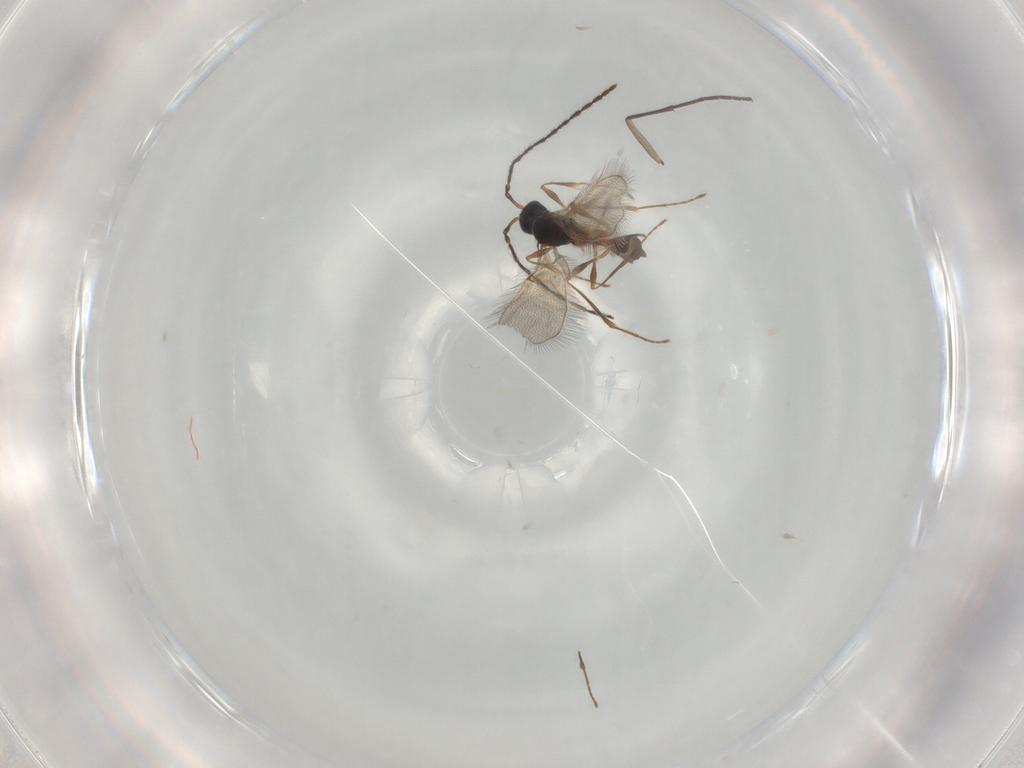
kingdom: Animalia
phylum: Arthropoda
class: Insecta
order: Hymenoptera
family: Diapriidae
